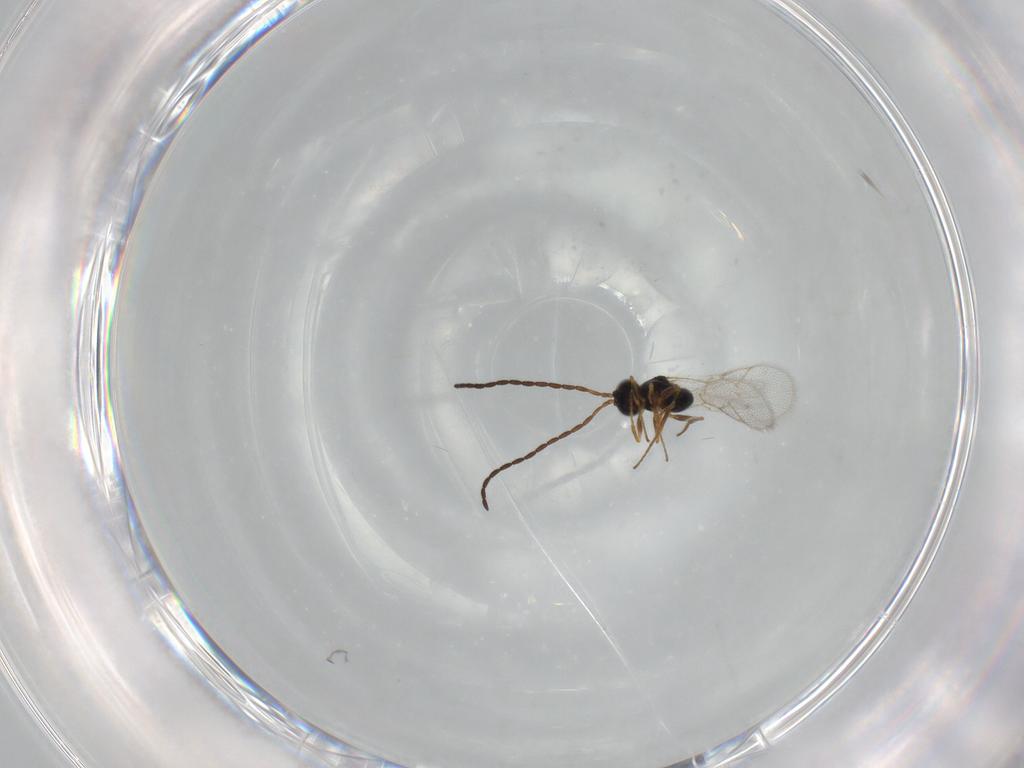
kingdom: Animalia
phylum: Arthropoda
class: Insecta
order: Hymenoptera
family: Figitidae
